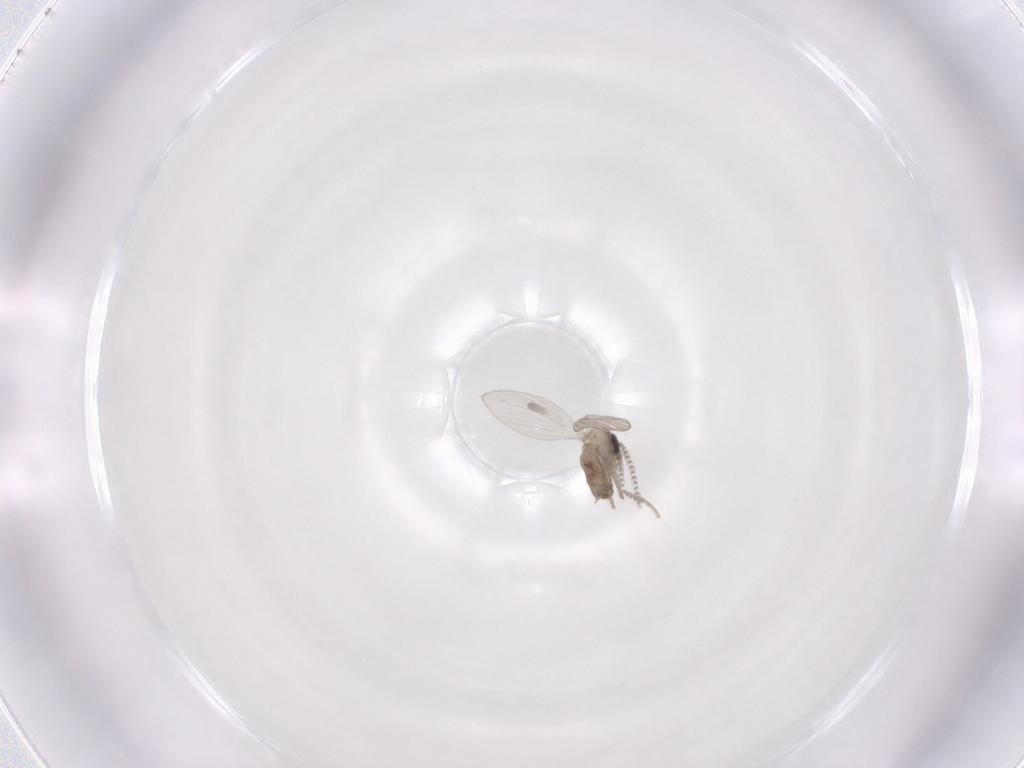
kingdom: Animalia
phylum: Arthropoda
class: Insecta
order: Diptera
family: Psychodidae
